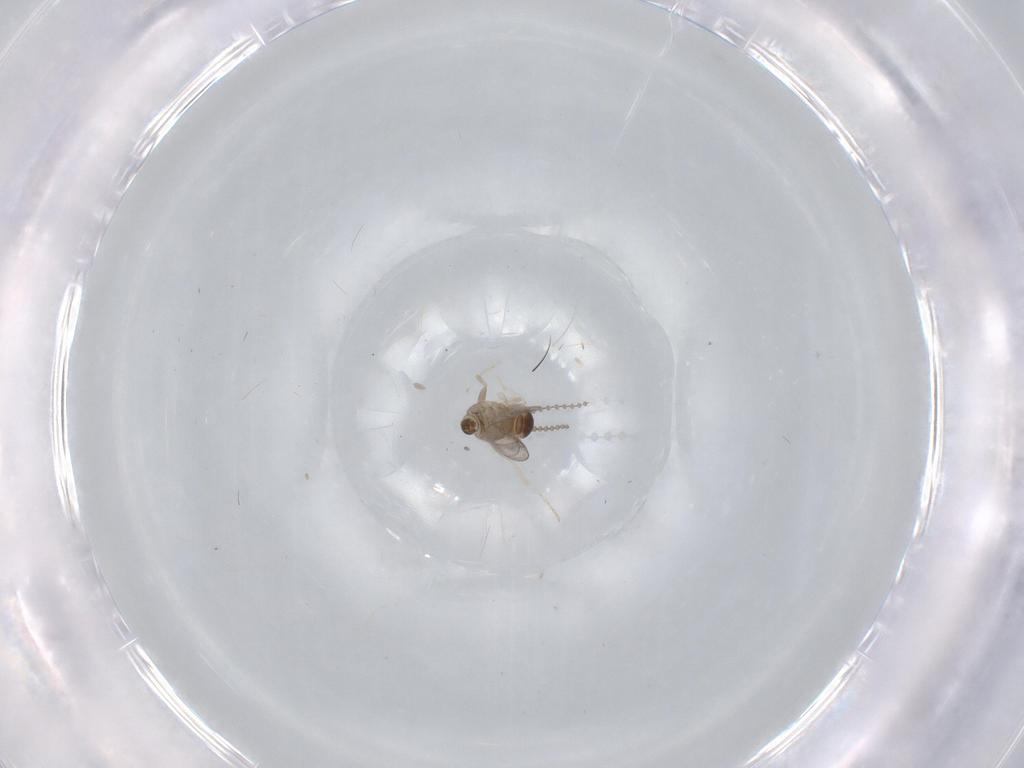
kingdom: Animalia
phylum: Arthropoda
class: Insecta
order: Diptera
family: Cecidomyiidae
